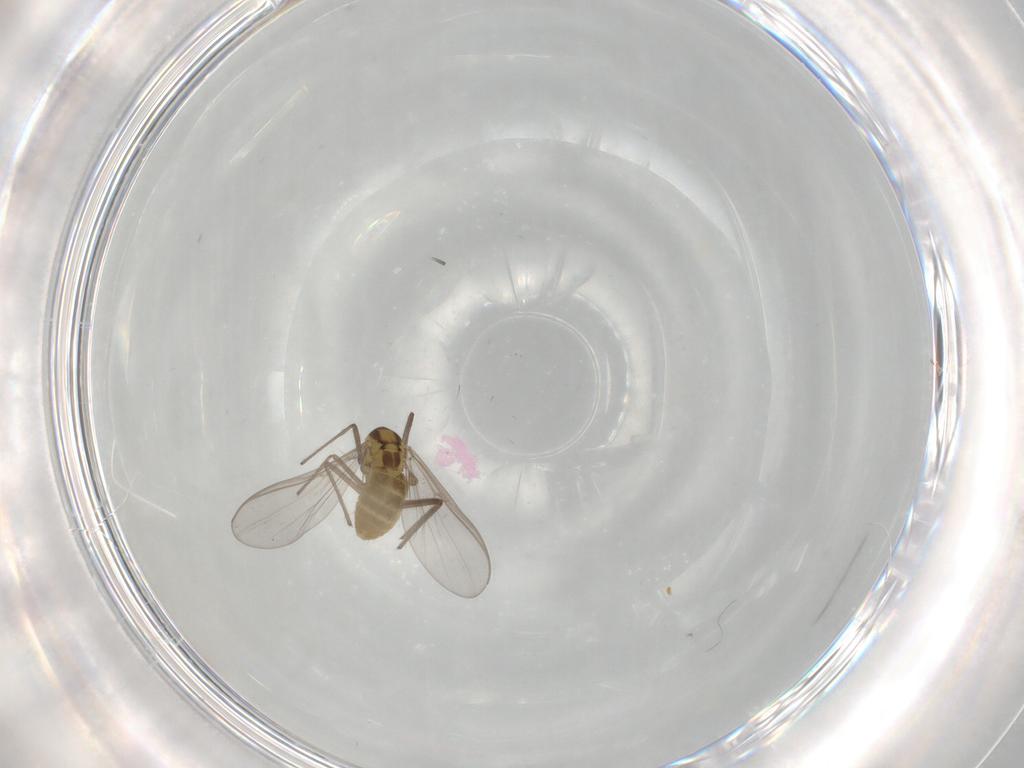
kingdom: Animalia
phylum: Arthropoda
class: Insecta
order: Diptera
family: Chironomidae
